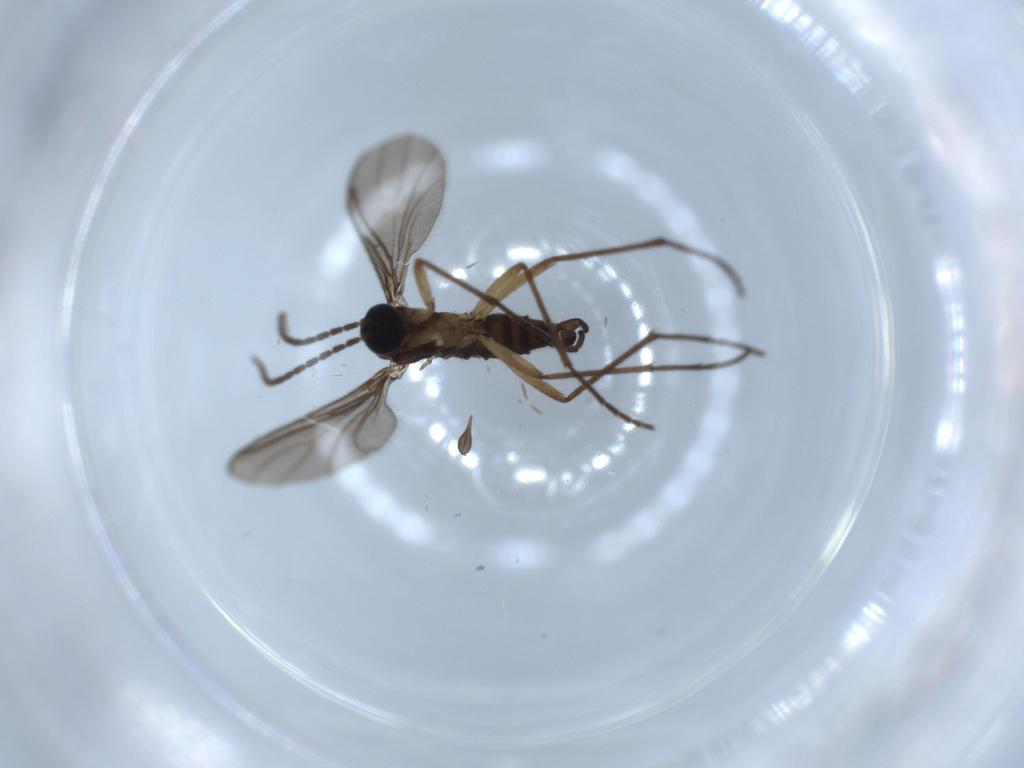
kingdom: Animalia
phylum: Arthropoda
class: Insecta
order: Diptera
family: Sciaridae
